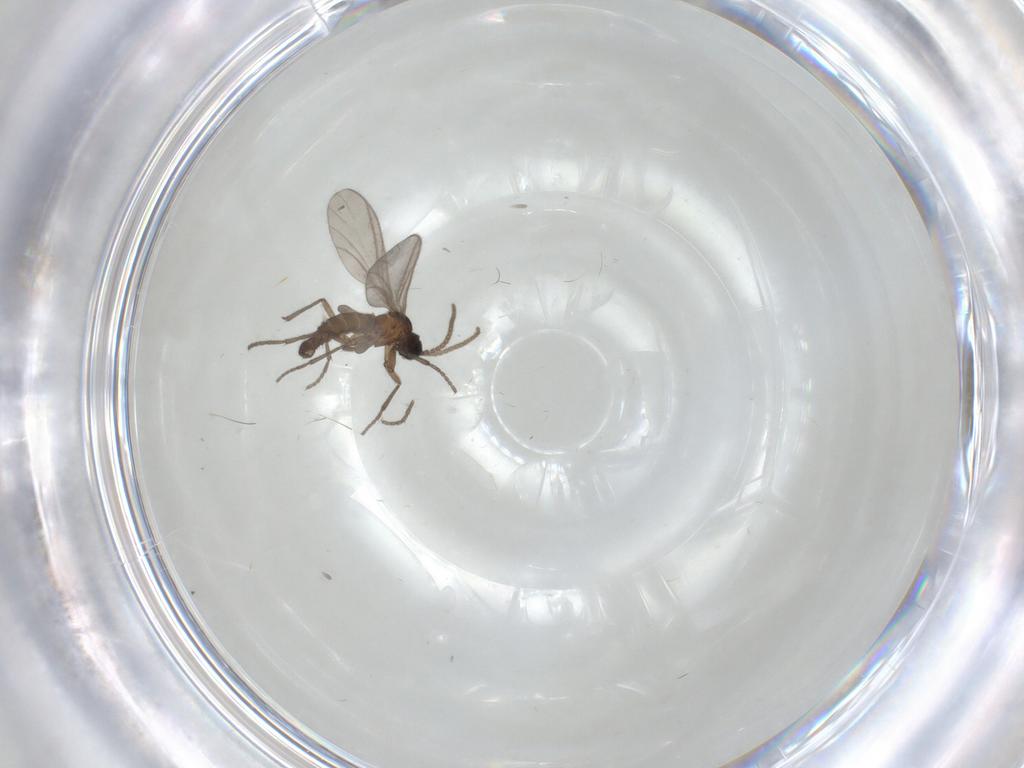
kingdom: Animalia
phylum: Arthropoda
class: Insecta
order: Diptera
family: Sciaridae
